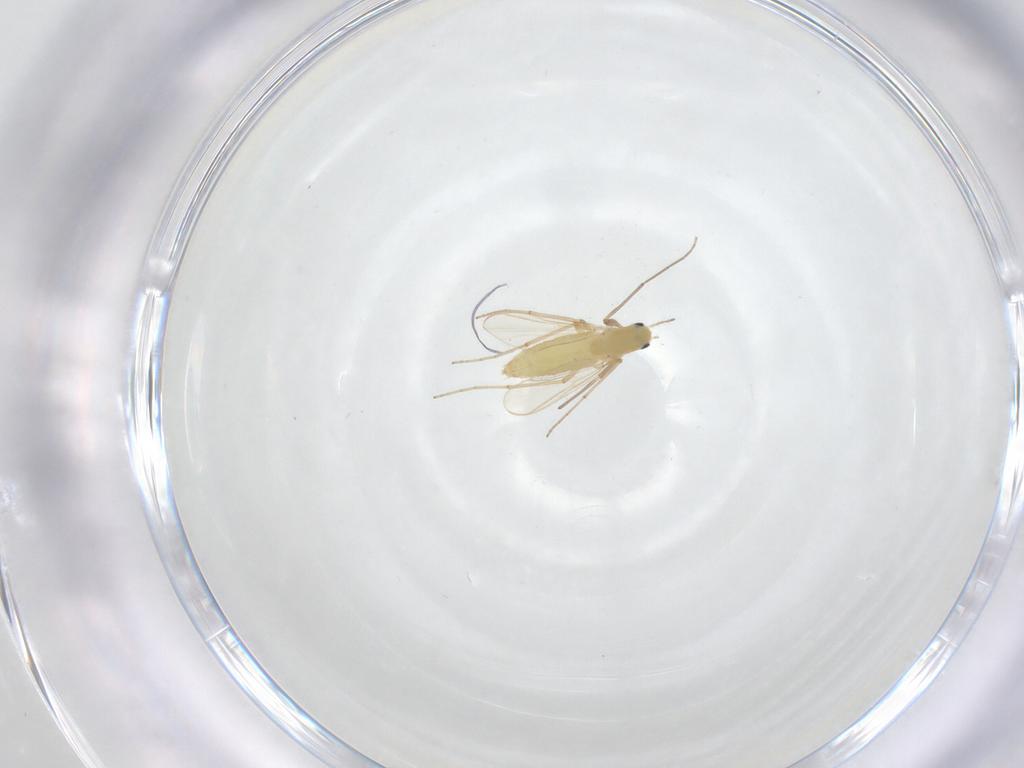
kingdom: Animalia
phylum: Arthropoda
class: Insecta
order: Diptera
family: Chironomidae
